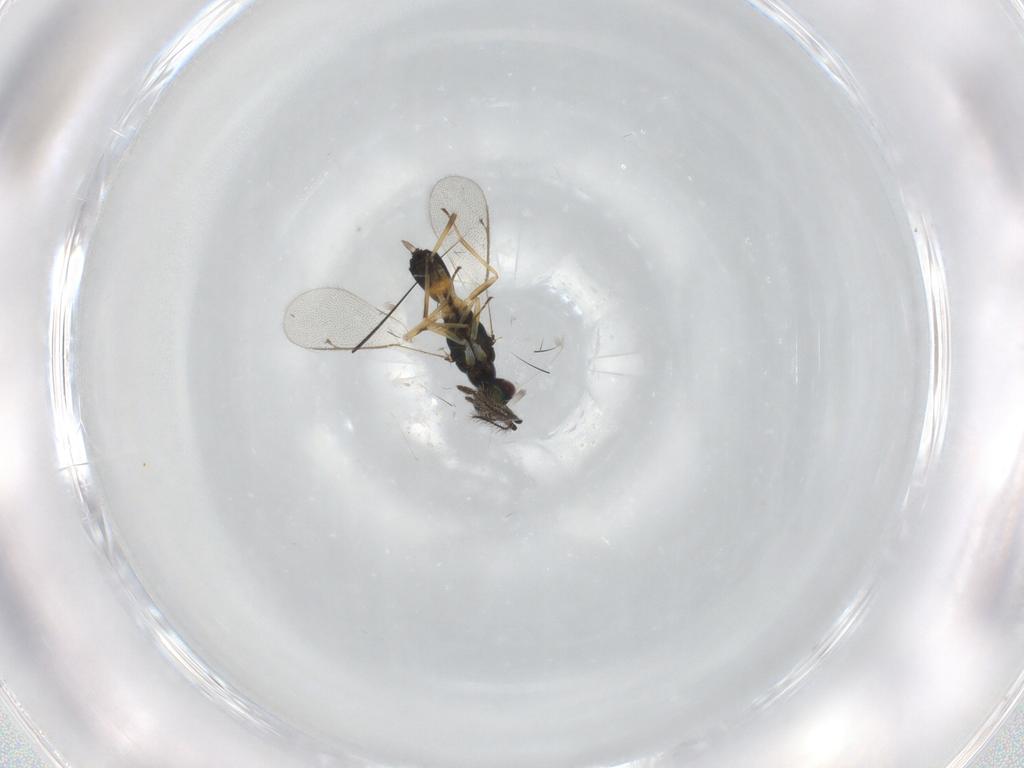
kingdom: Animalia
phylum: Arthropoda
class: Insecta
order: Hymenoptera
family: Eulophidae
